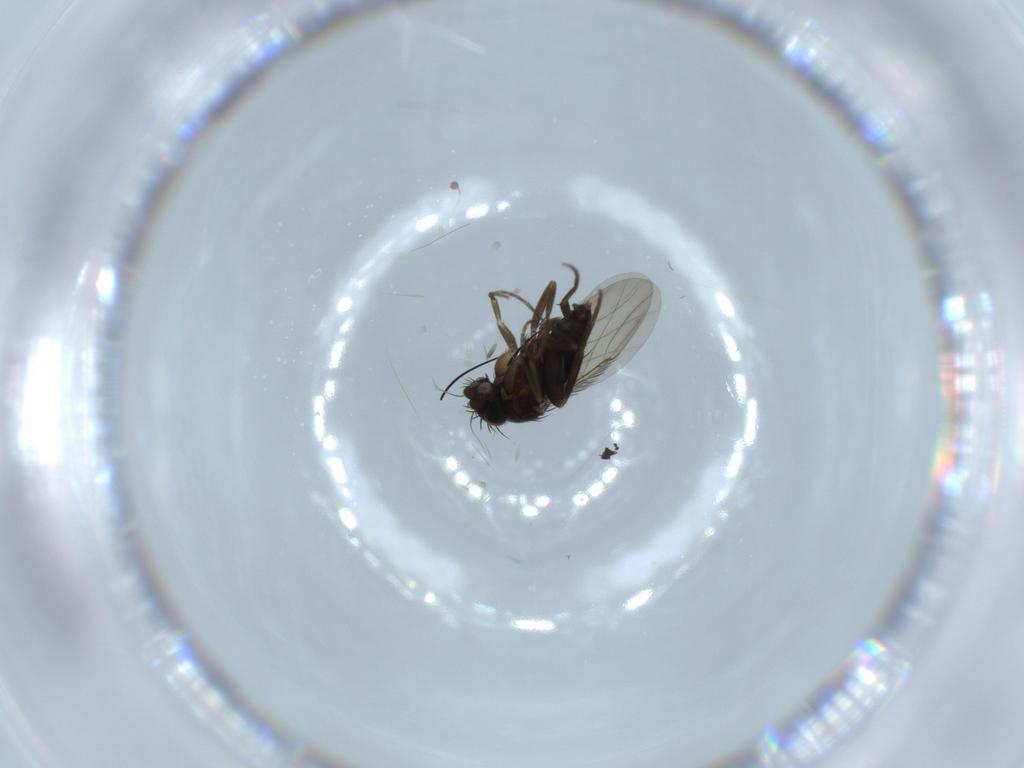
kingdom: Animalia
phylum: Arthropoda
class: Insecta
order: Diptera
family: Phoridae
